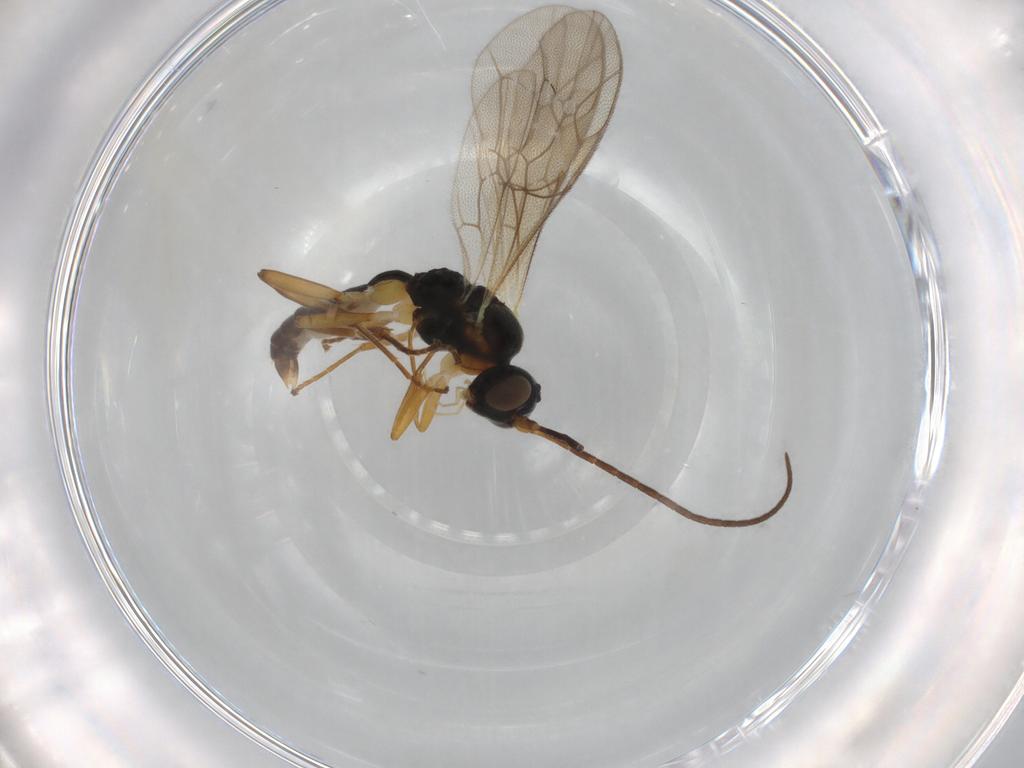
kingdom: Animalia
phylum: Arthropoda
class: Insecta
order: Hymenoptera
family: Ichneumonidae
